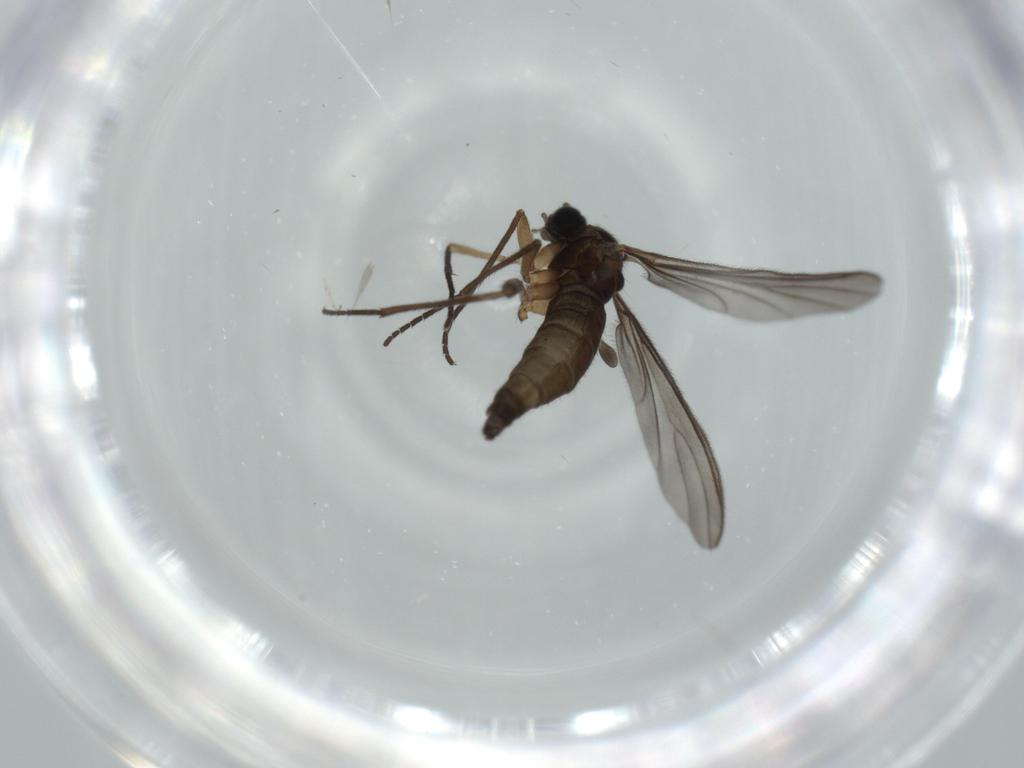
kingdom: Animalia
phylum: Arthropoda
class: Insecta
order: Diptera
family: Sciaridae
